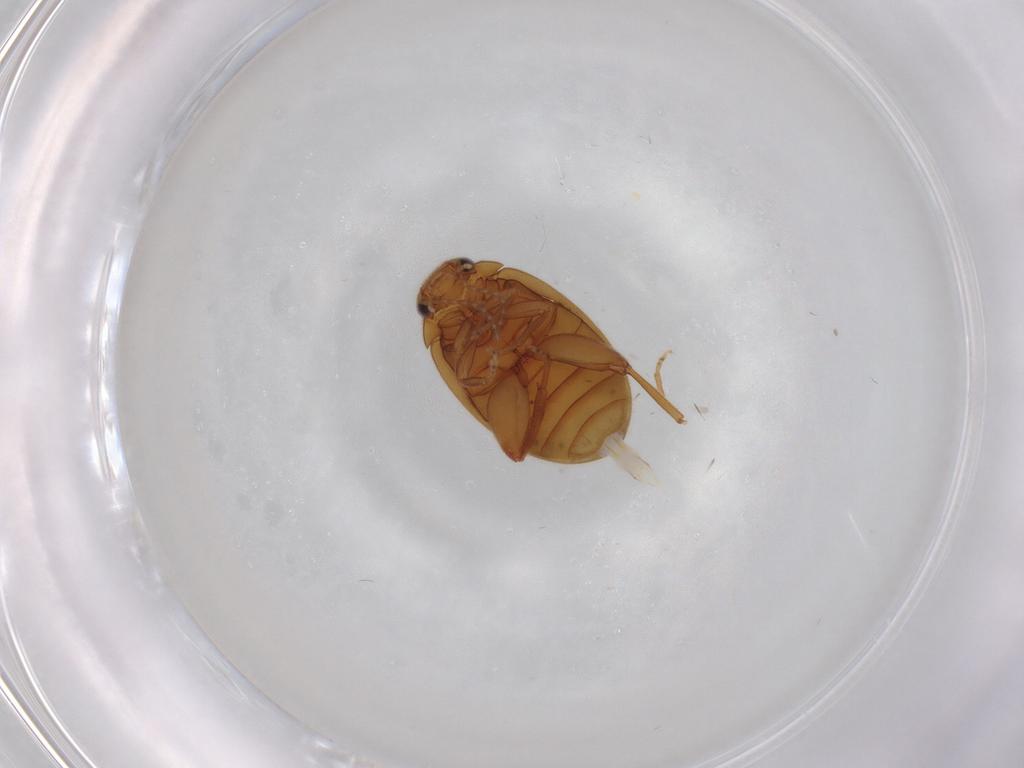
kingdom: Animalia
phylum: Arthropoda
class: Insecta
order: Coleoptera
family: Scirtidae
